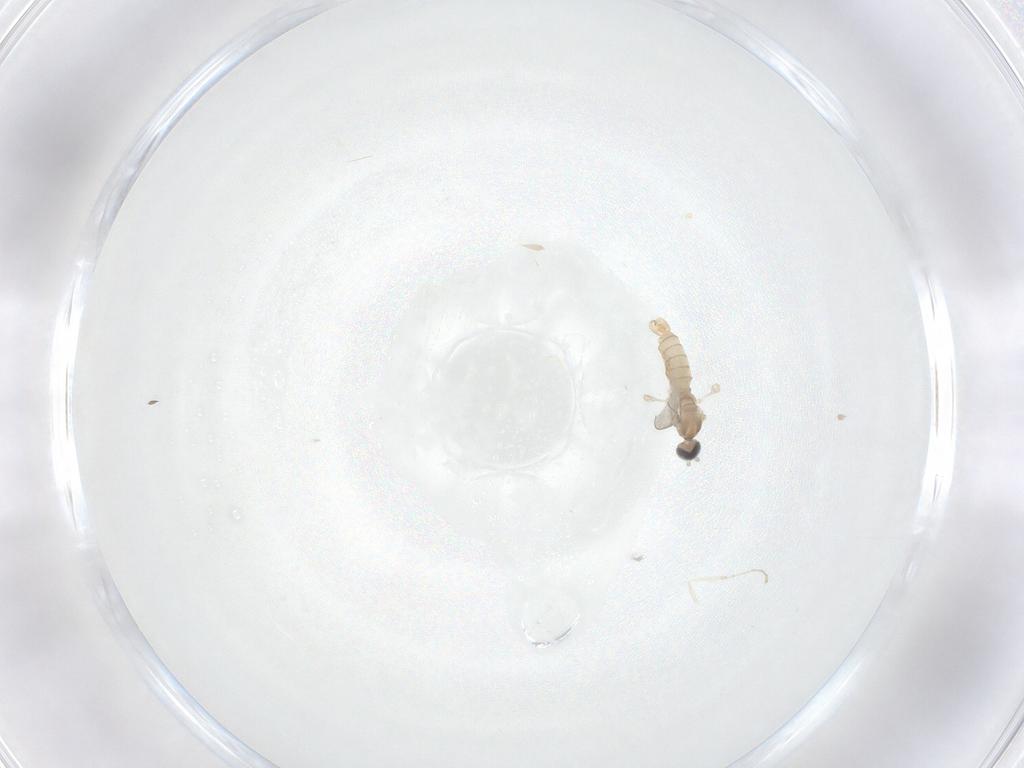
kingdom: Animalia
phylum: Arthropoda
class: Insecta
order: Diptera
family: Cecidomyiidae
